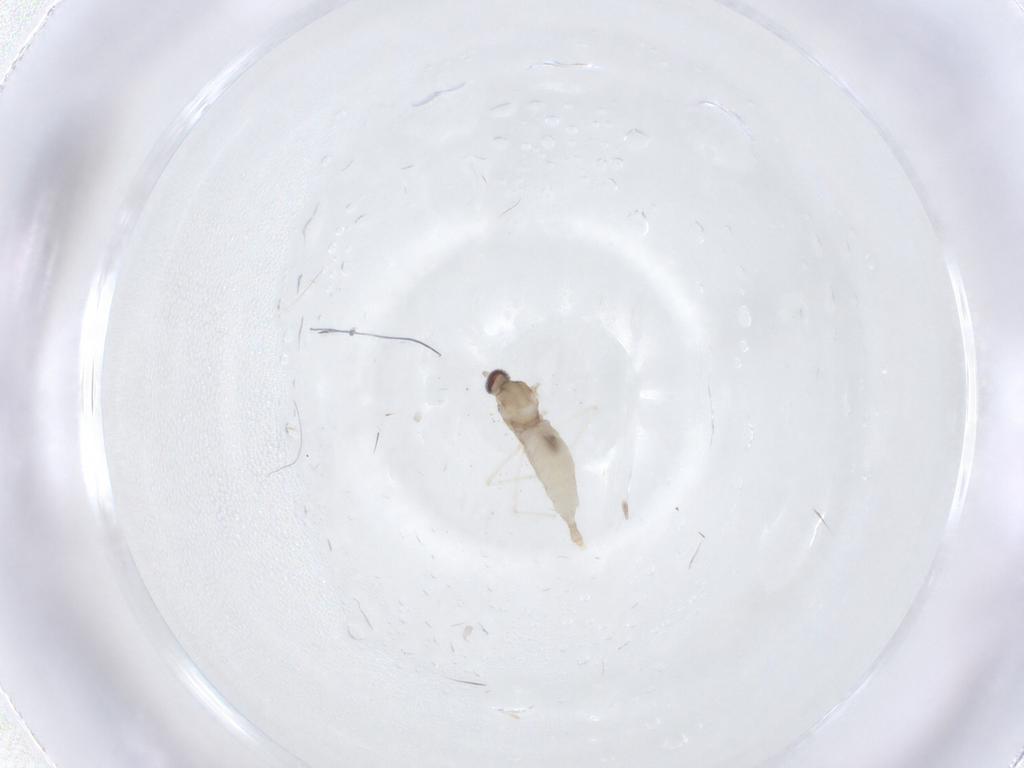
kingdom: Animalia
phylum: Arthropoda
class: Insecta
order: Diptera
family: Cecidomyiidae
